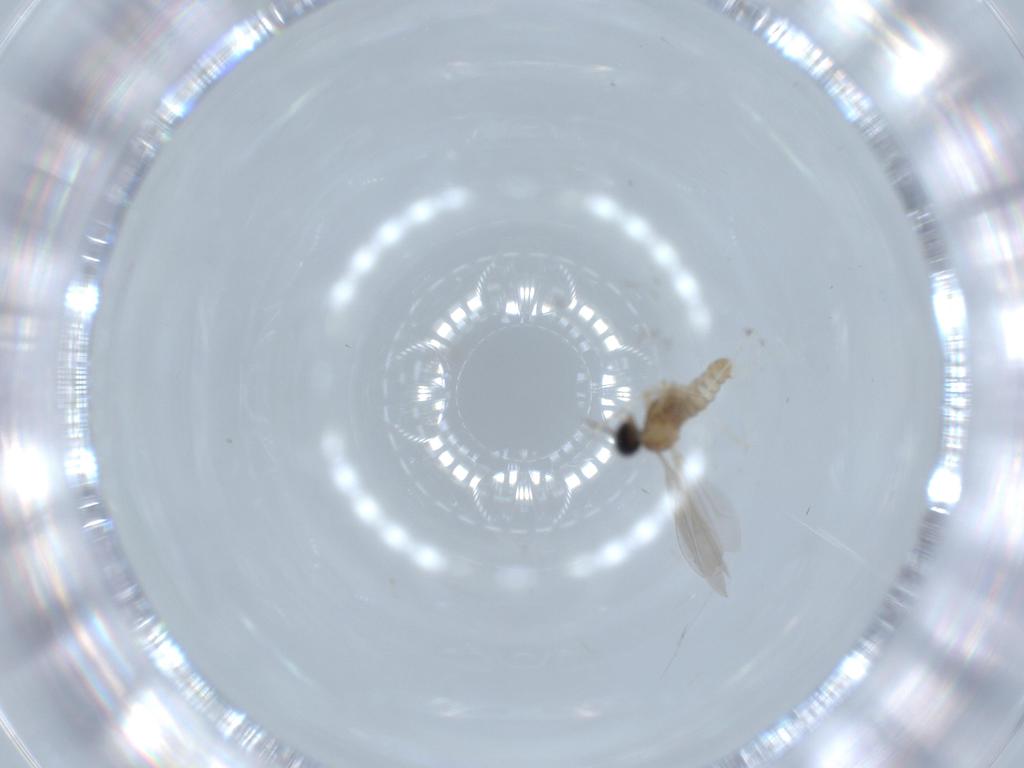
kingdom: Animalia
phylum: Arthropoda
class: Insecta
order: Diptera
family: Cecidomyiidae
